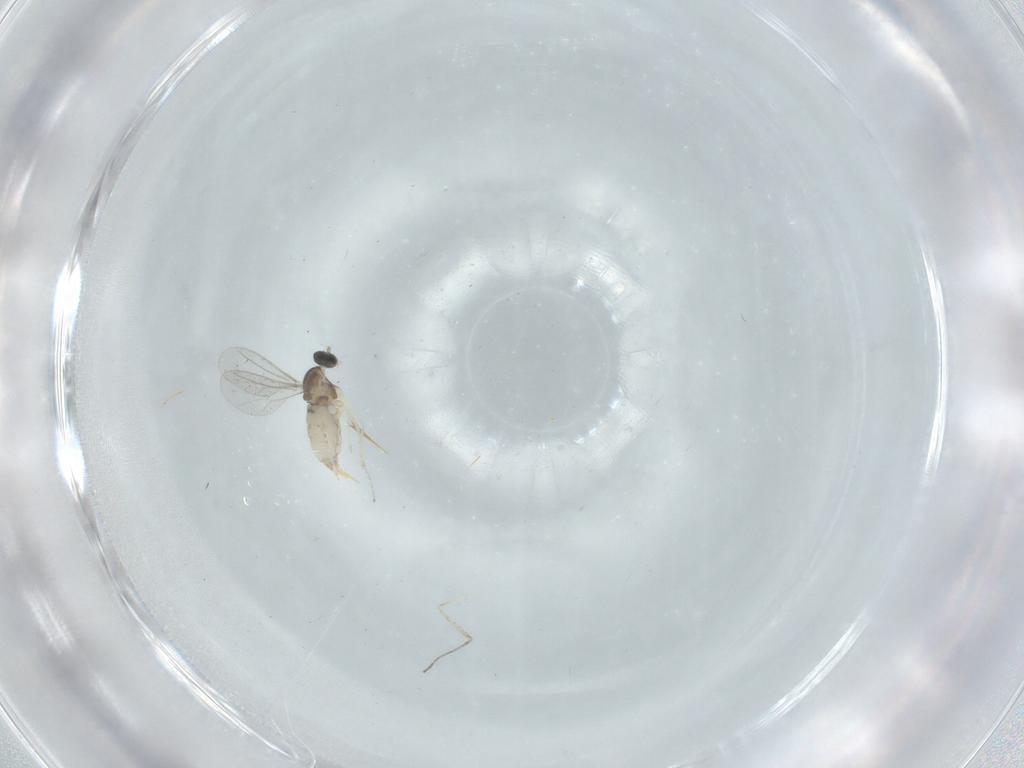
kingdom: Animalia
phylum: Arthropoda
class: Insecta
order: Diptera
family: Cecidomyiidae
